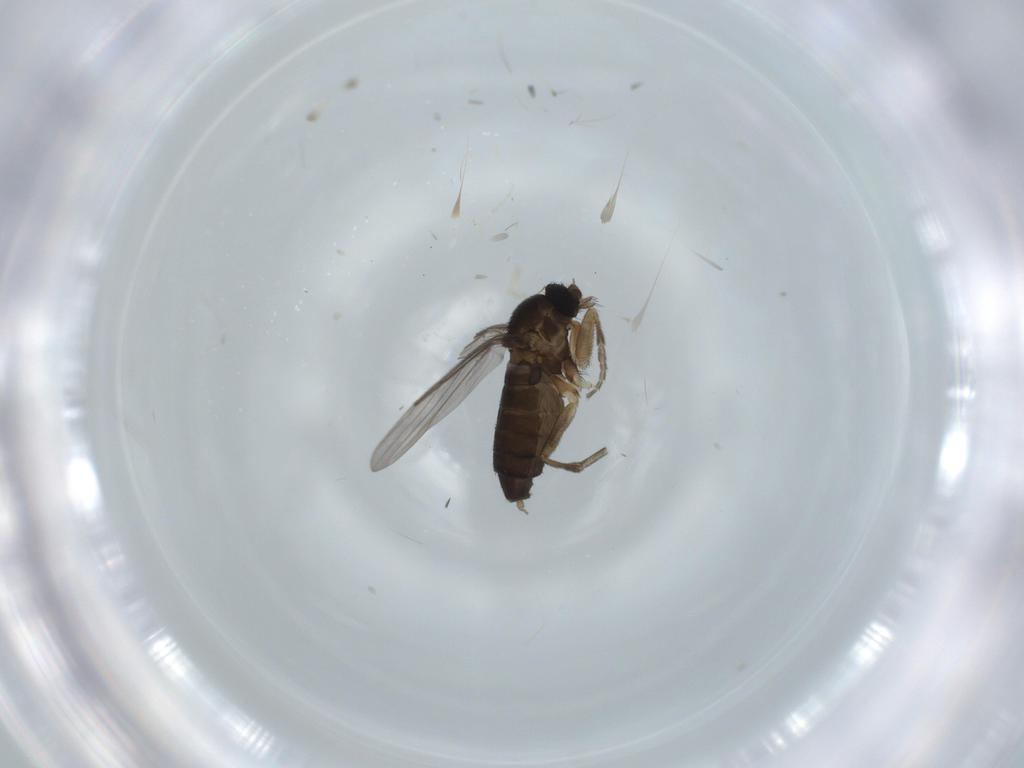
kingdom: Animalia
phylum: Arthropoda
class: Insecta
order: Diptera
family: Phoridae
